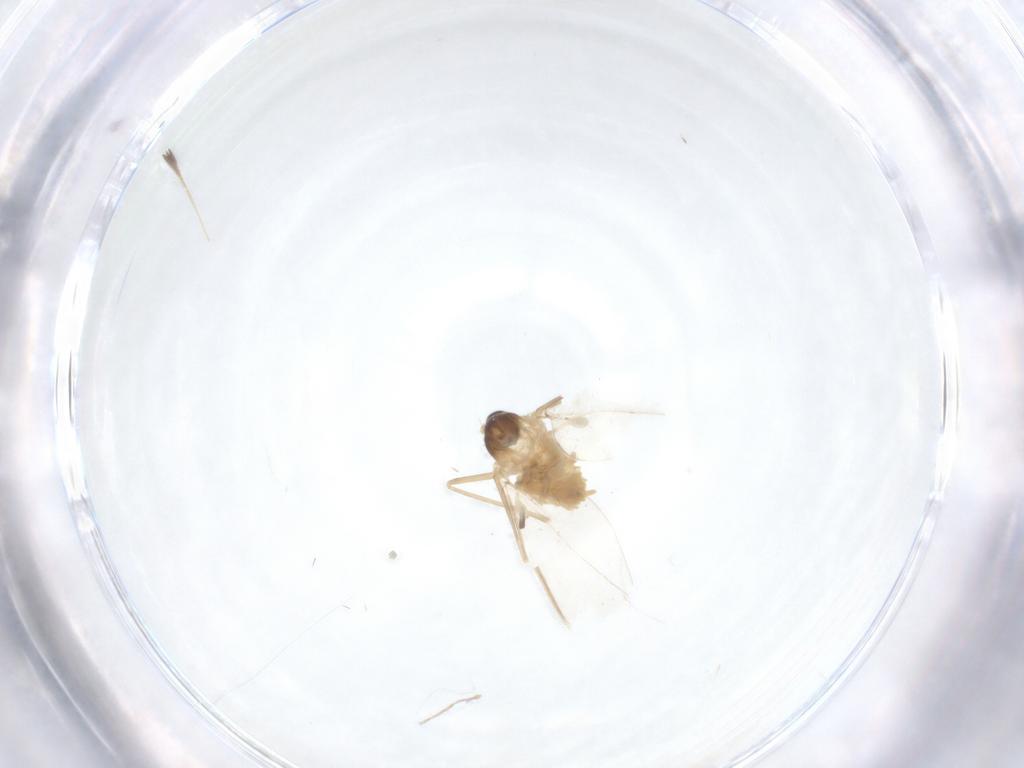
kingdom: Animalia
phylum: Arthropoda
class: Insecta
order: Diptera
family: Cecidomyiidae
